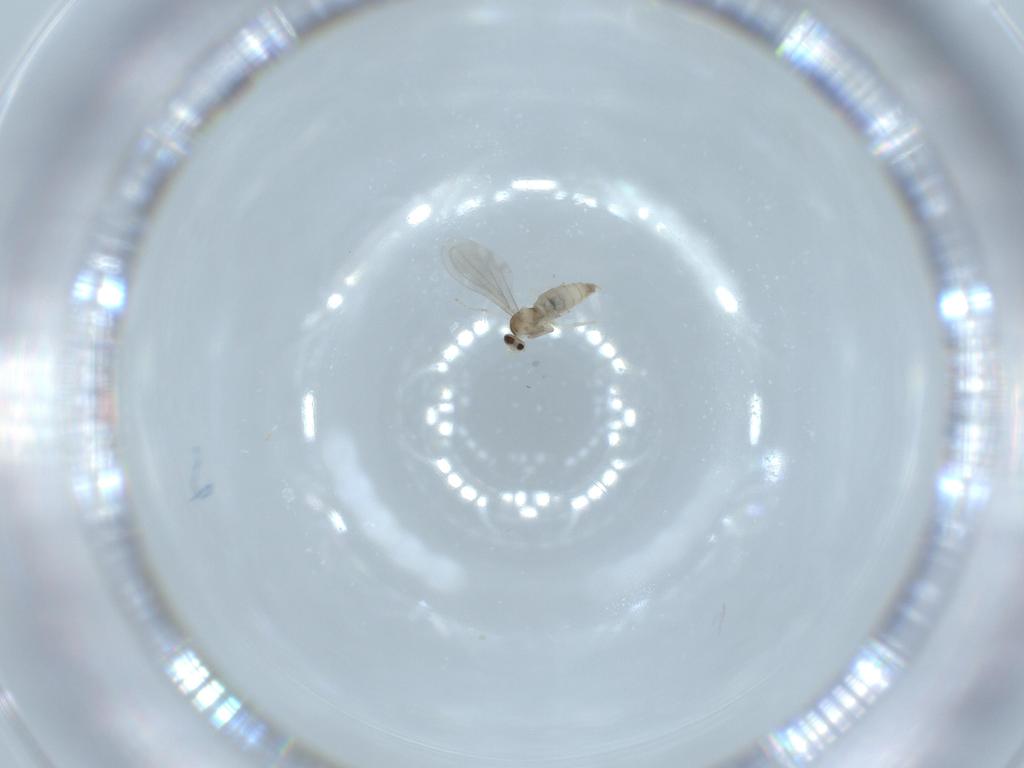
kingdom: Animalia
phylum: Arthropoda
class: Insecta
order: Diptera
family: Cecidomyiidae
